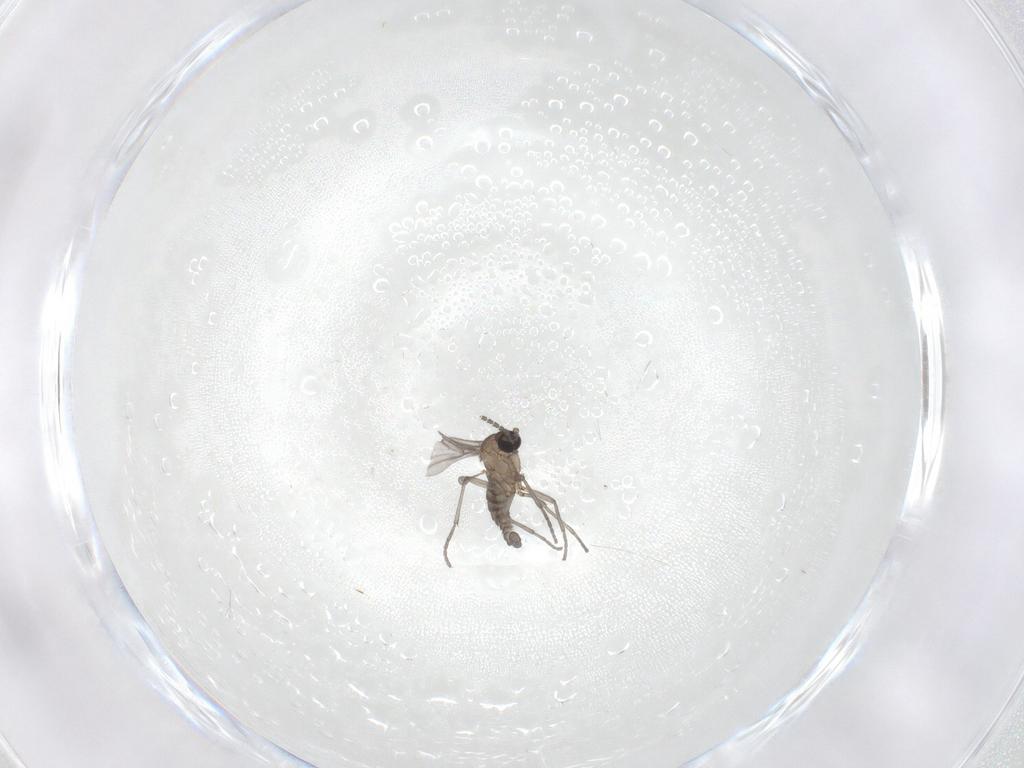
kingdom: Animalia
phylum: Arthropoda
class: Insecta
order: Diptera
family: Sciaridae
